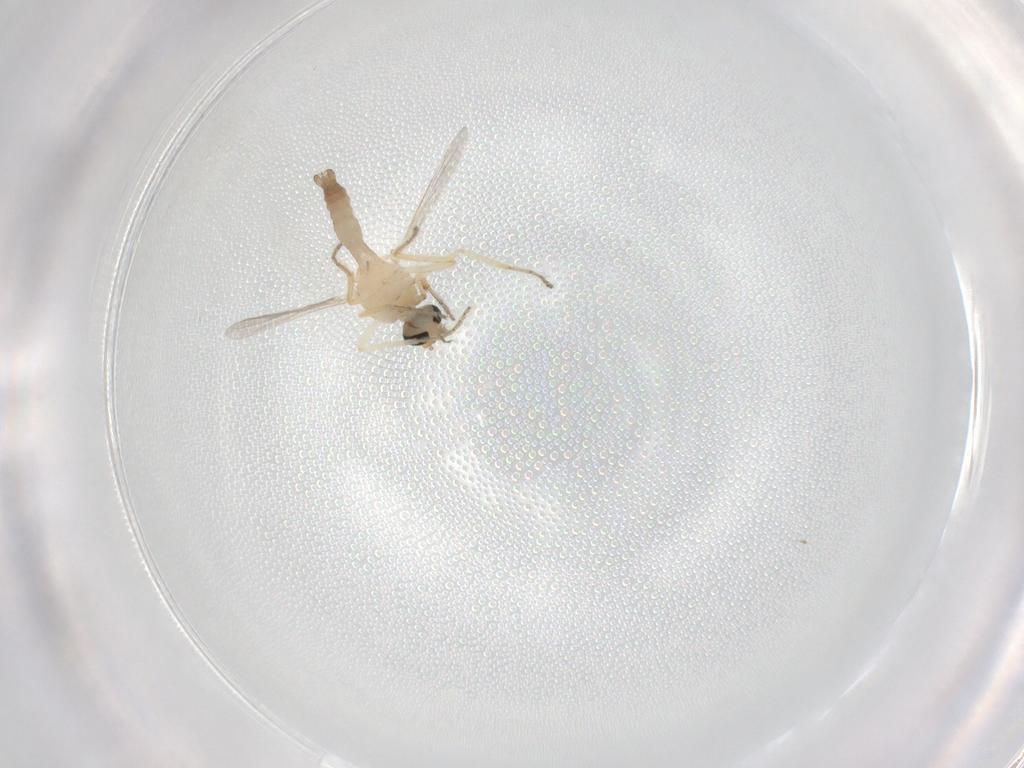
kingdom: Animalia
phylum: Arthropoda
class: Insecta
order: Diptera
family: Ceratopogonidae
